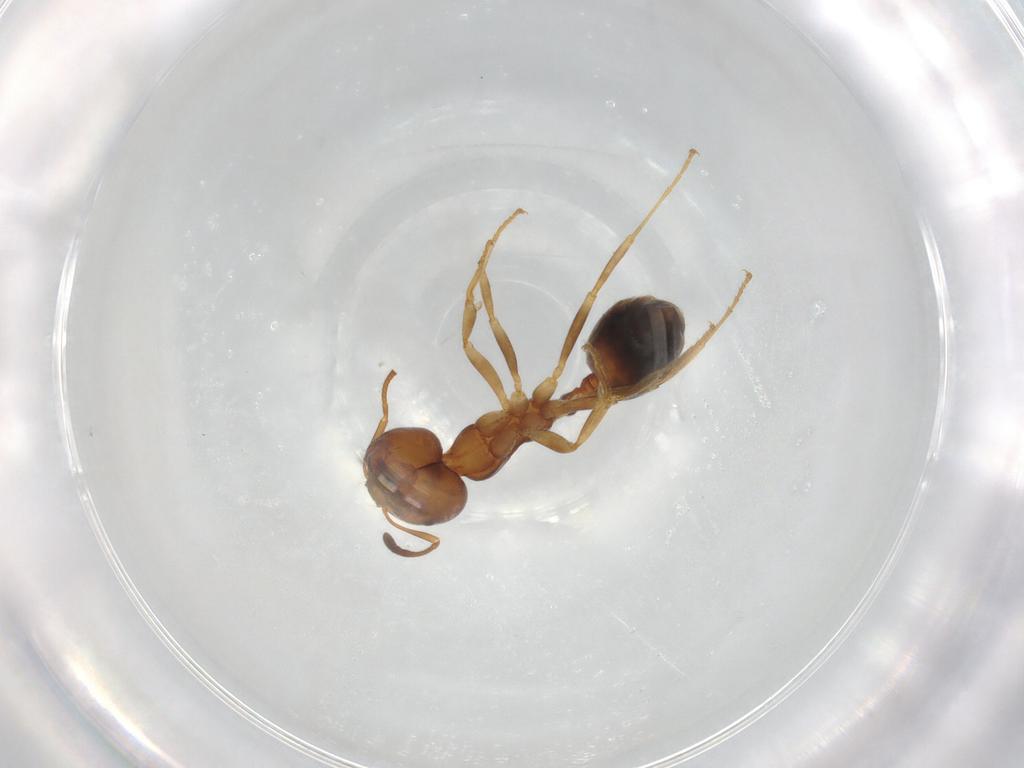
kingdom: Animalia
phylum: Arthropoda
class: Insecta
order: Hymenoptera
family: Formicidae
